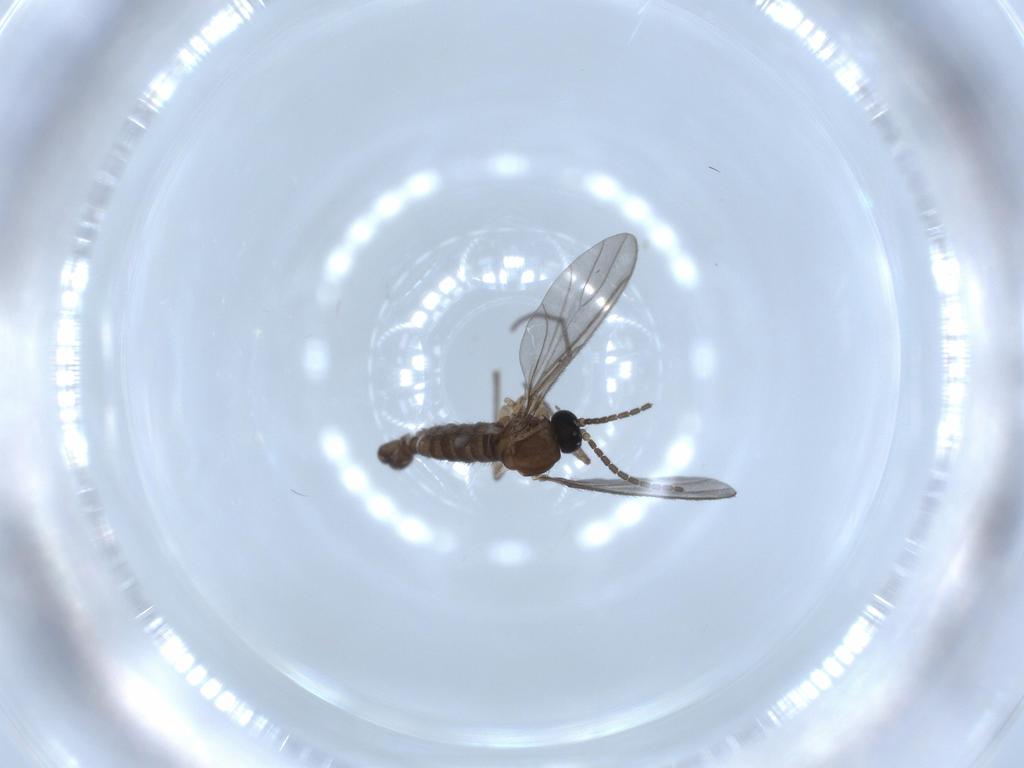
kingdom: Animalia
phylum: Arthropoda
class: Insecta
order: Diptera
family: Sciaridae
